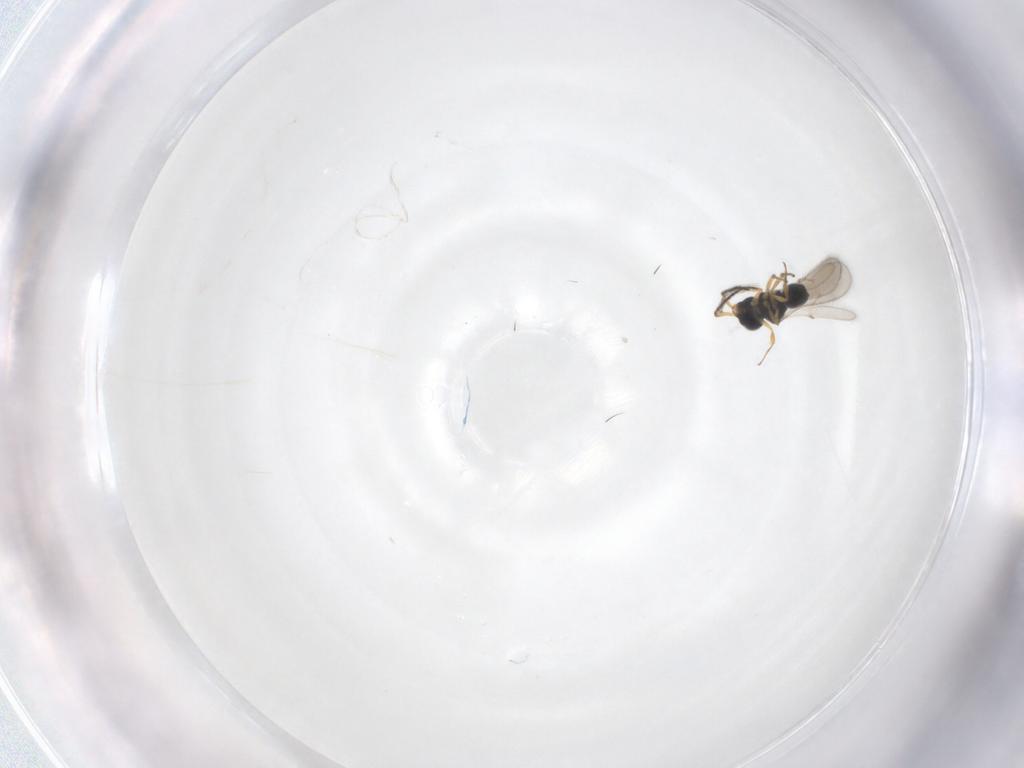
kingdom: Animalia
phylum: Arthropoda
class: Insecta
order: Hymenoptera
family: Scelionidae
